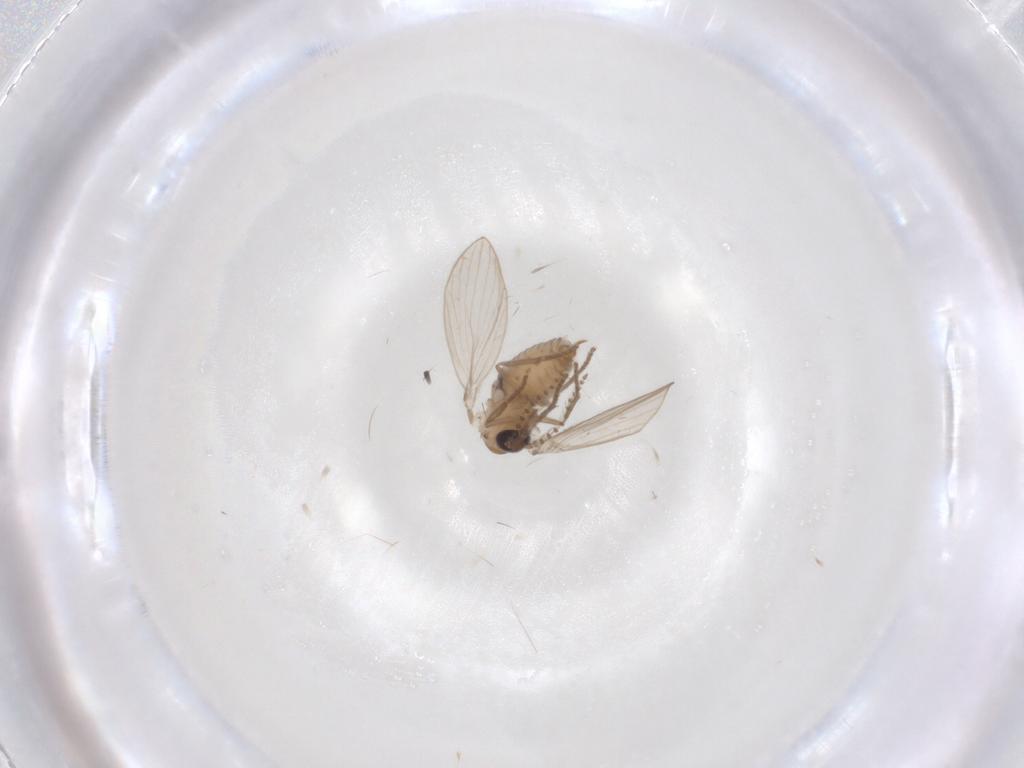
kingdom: Animalia
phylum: Arthropoda
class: Insecta
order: Diptera
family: Psychodidae
